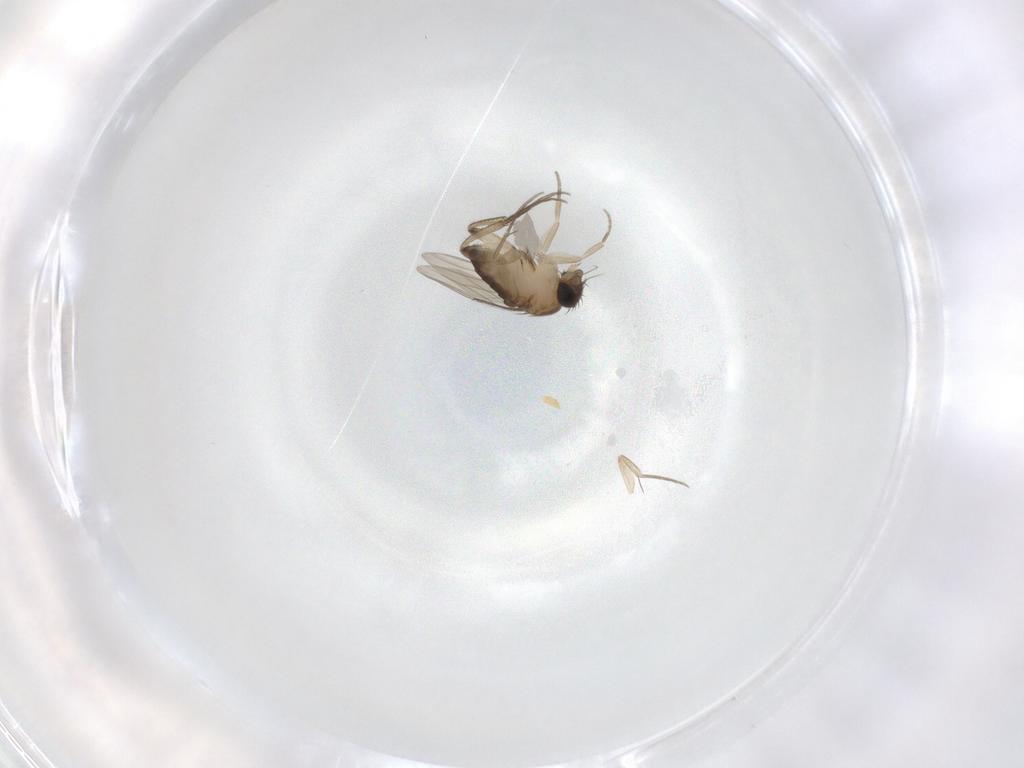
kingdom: Animalia
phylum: Arthropoda
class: Insecta
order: Diptera
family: Phoridae
